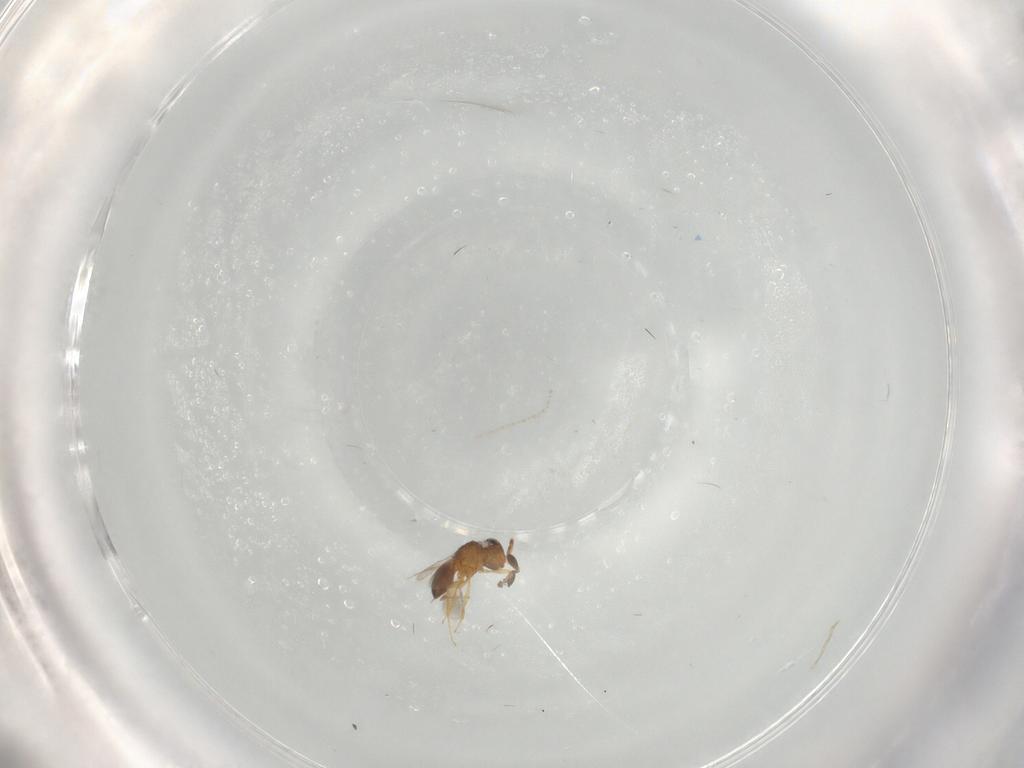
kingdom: Animalia
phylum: Arthropoda
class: Insecta
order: Hymenoptera
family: Scelionidae
